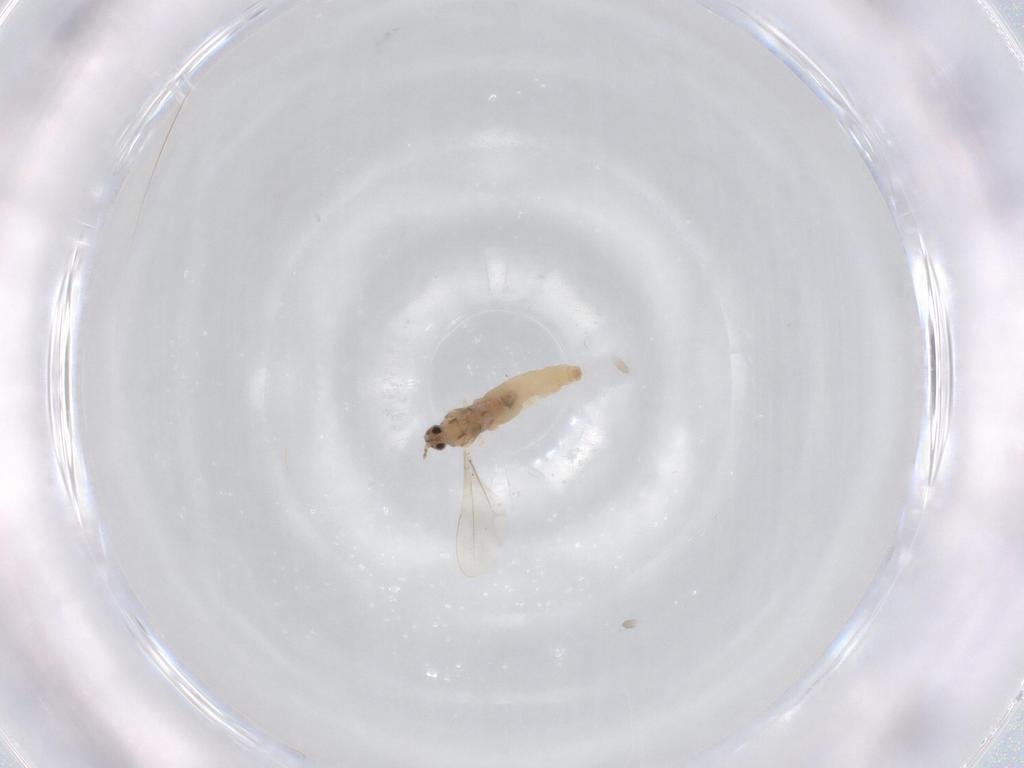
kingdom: Animalia
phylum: Arthropoda
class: Insecta
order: Diptera
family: Cecidomyiidae
